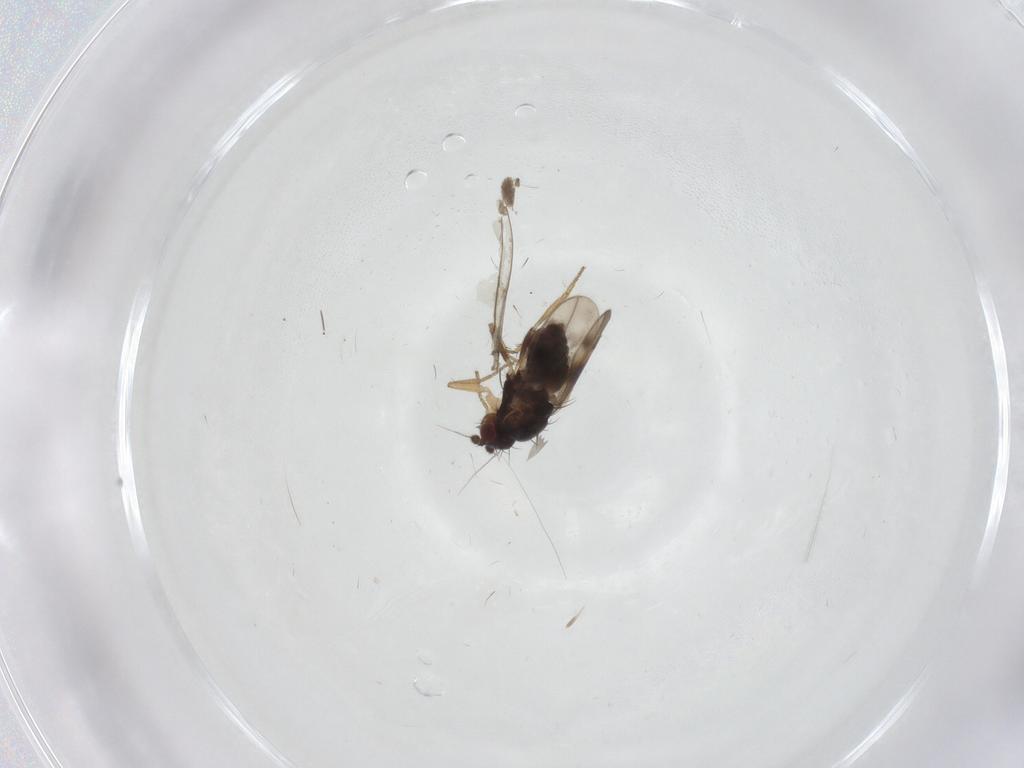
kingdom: Animalia
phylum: Arthropoda
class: Insecta
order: Diptera
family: Sphaeroceridae
